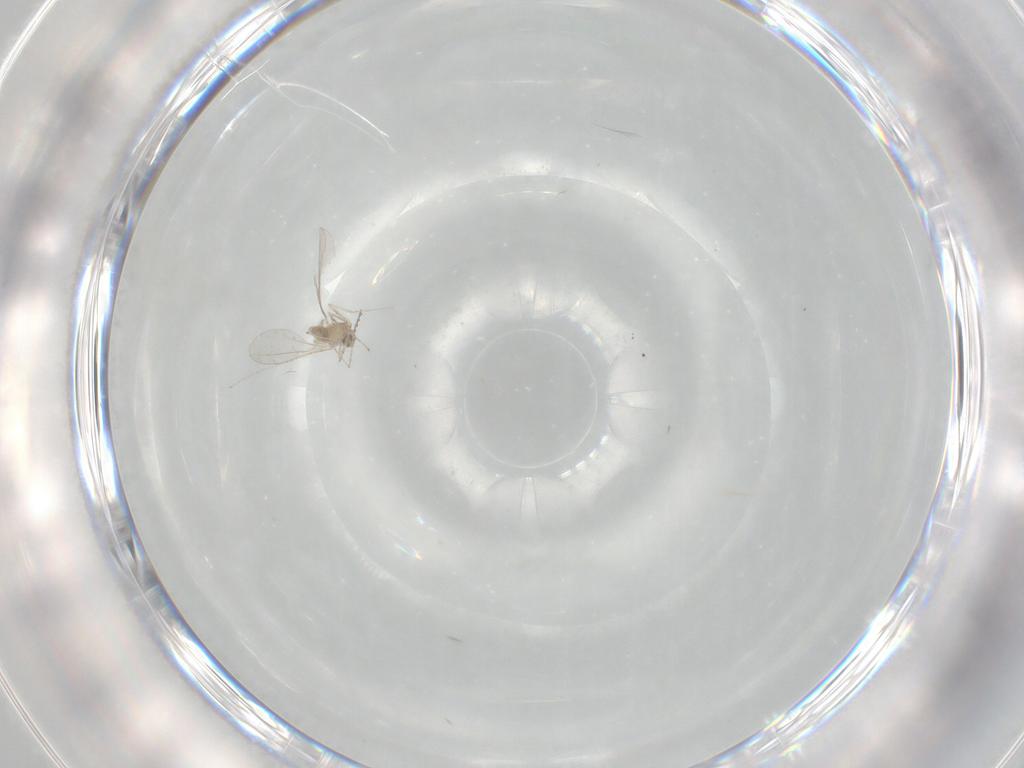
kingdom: Animalia
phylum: Arthropoda
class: Insecta
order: Diptera
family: Cecidomyiidae
